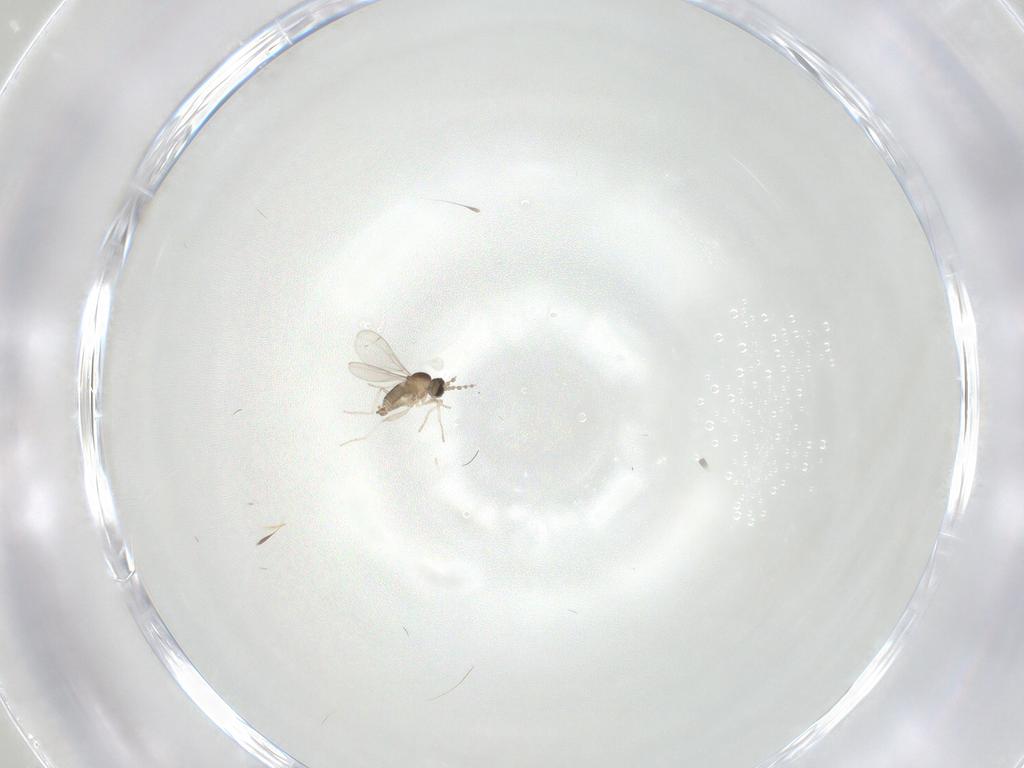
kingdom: Animalia
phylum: Arthropoda
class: Insecta
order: Diptera
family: Cecidomyiidae
